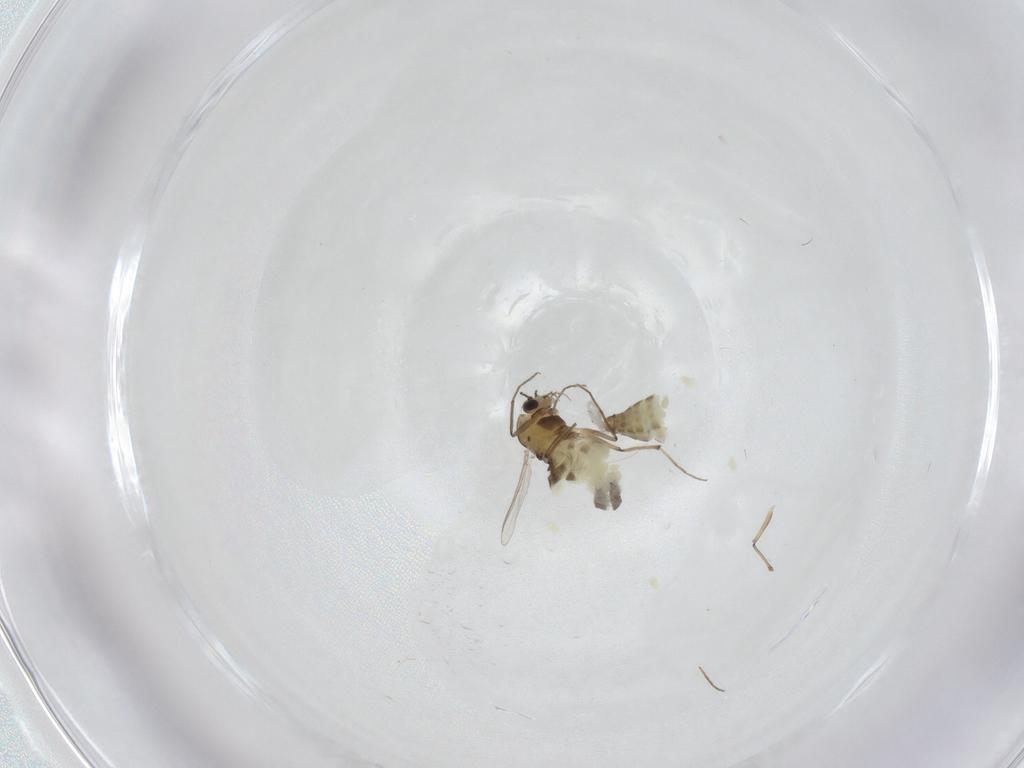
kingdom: Animalia
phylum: Arthropoda
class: Insecta
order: Diptera
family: Chironomidae
